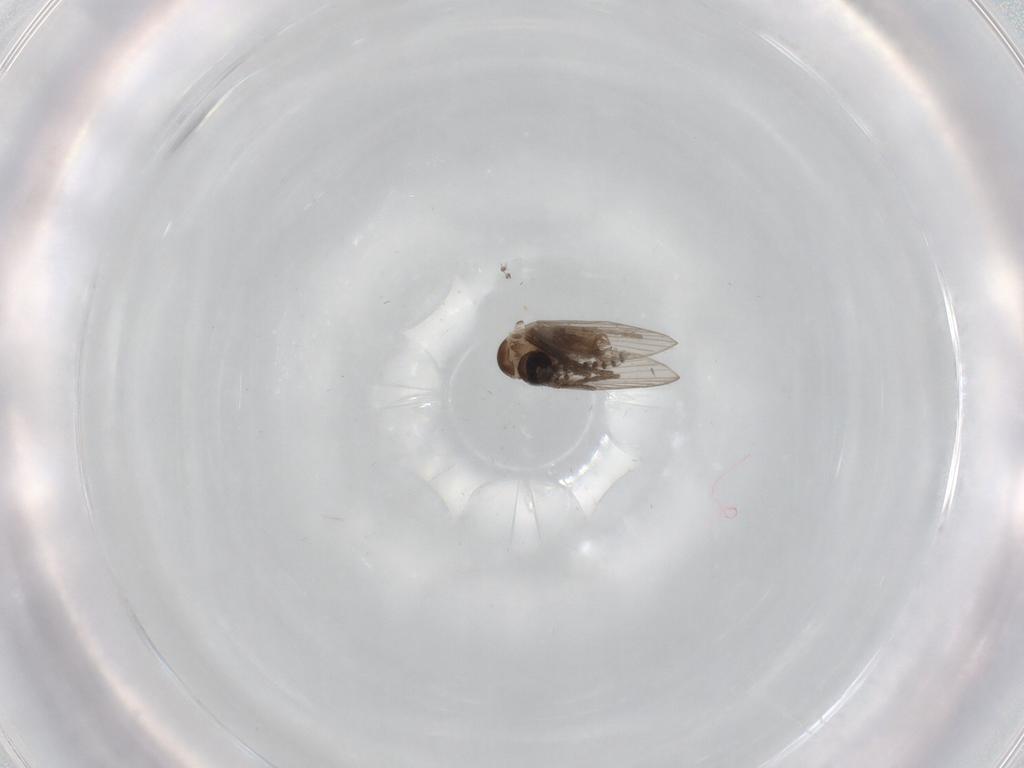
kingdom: Animalia
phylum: Arthropoda
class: Insecta
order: Diptera
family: Psychodidae
